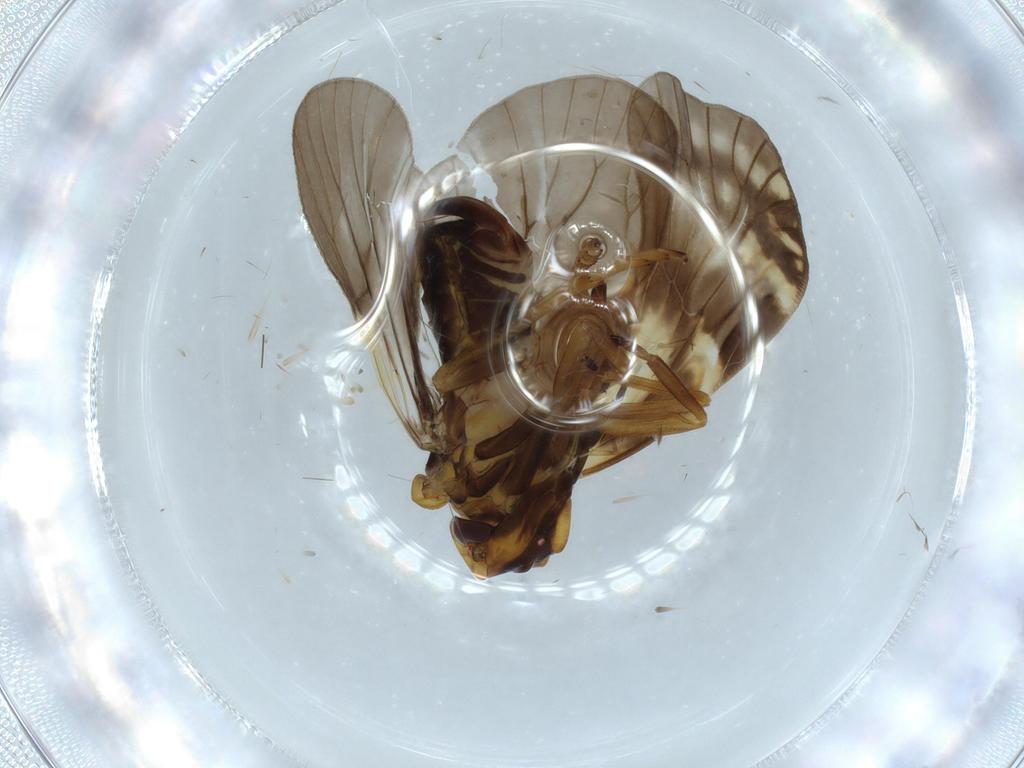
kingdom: Animalia
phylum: Arthropoda
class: Insecta
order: Hemiptera
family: Cixiidae
